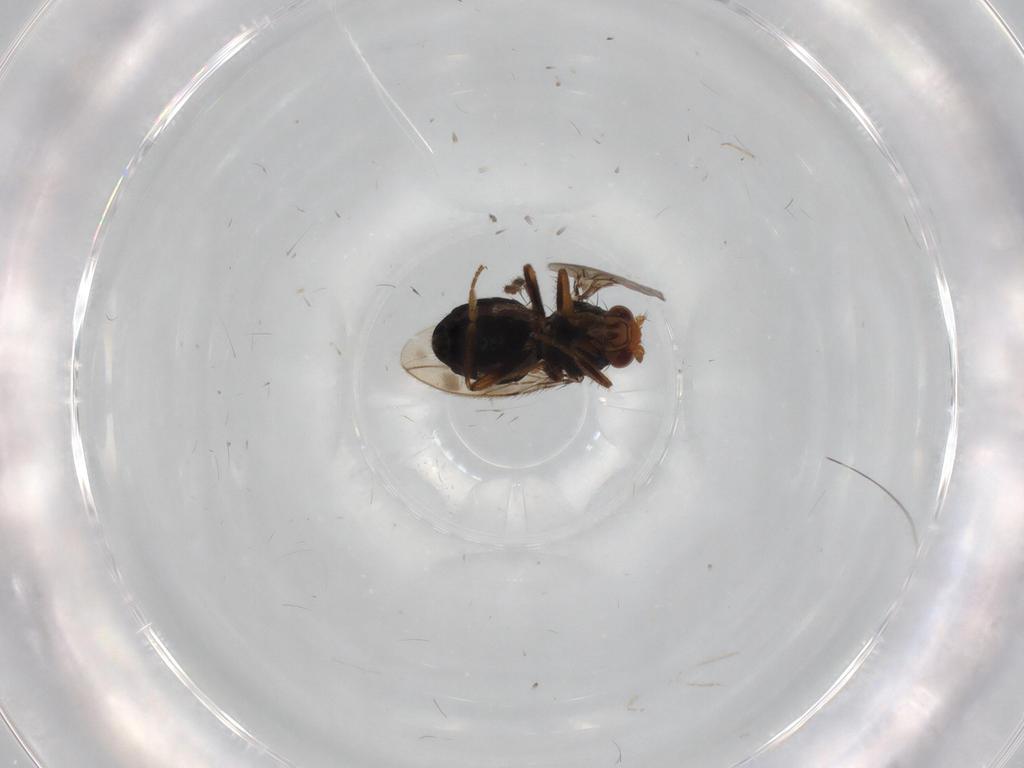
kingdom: Animalia
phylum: Arthropoda
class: Insecta
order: Diptera
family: Sphaeroceridae
